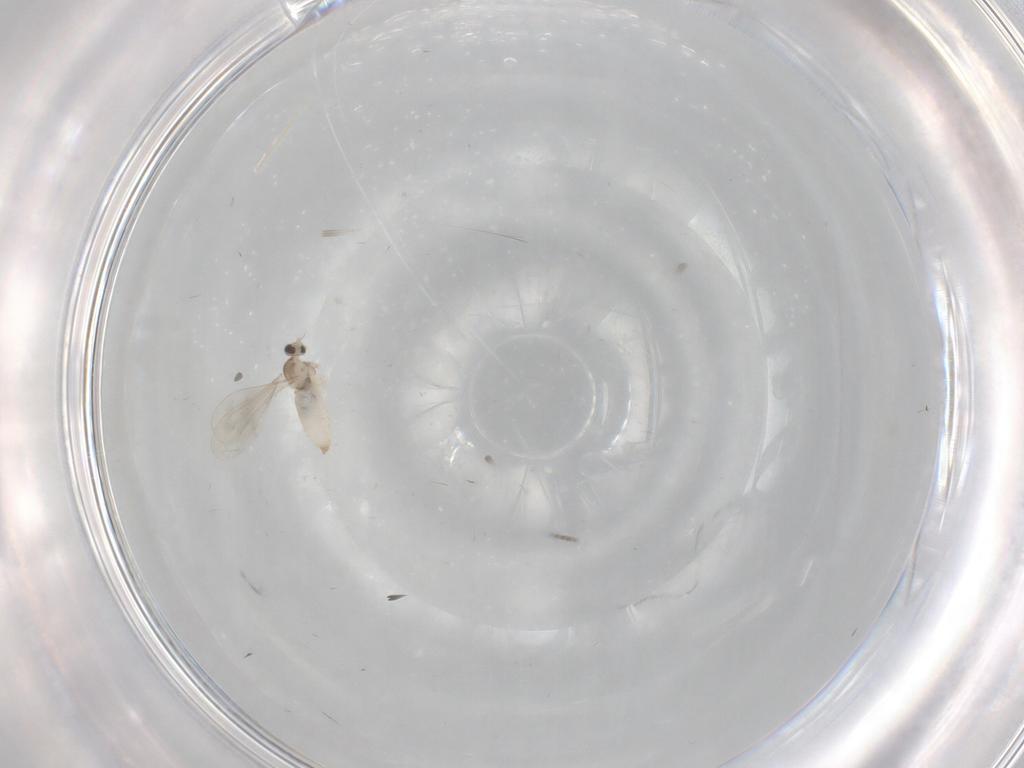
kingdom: Animalia
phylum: Arthropoda
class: Insecta
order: Diptera
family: Cecidomyiidae
